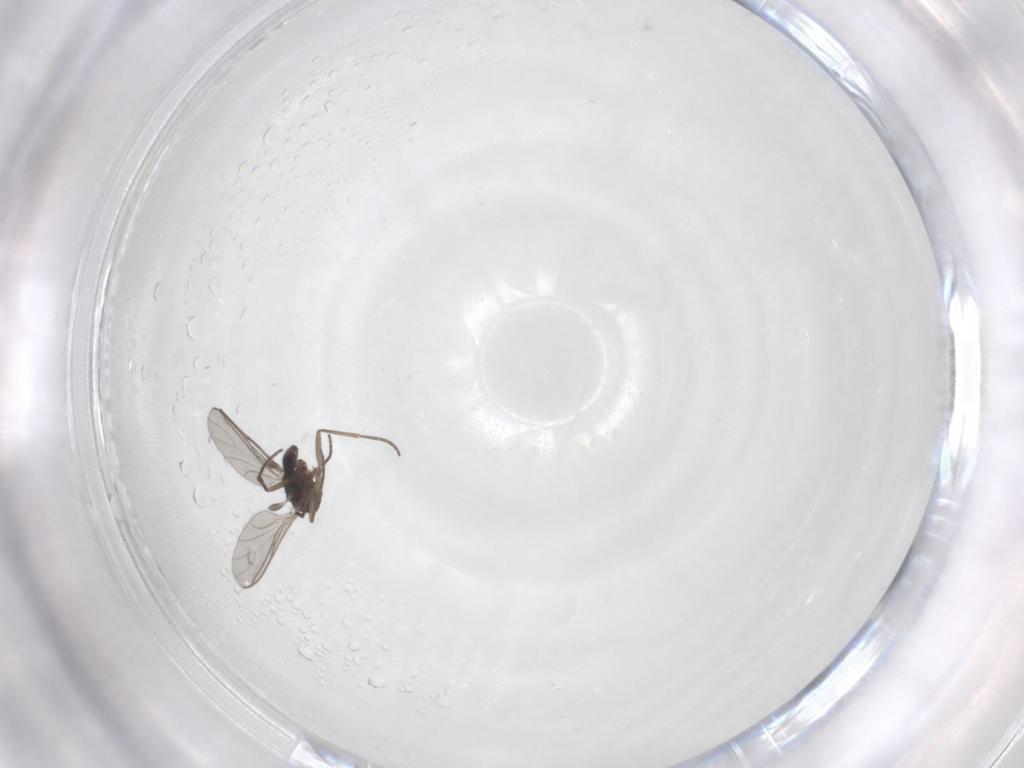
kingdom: Animalia
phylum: Arthropoda
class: Insecta
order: Diptera
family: Sciaridae
